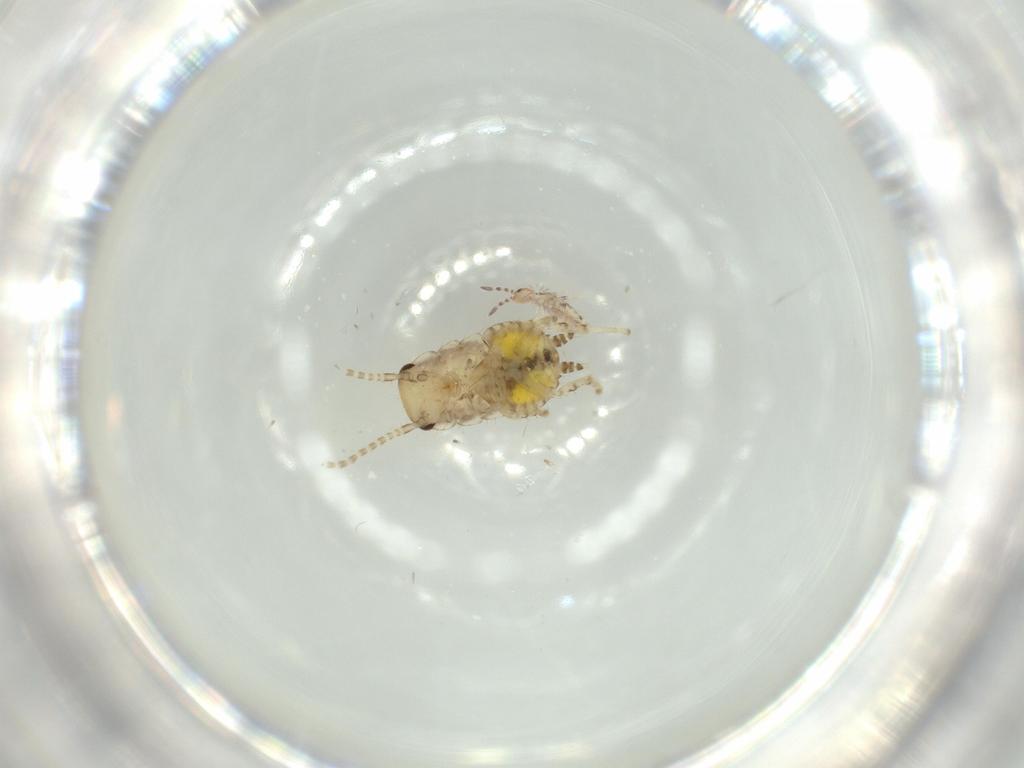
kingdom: Animalia
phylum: Arthropoda
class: Insecta
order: Blattodea
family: Ectobiidae
